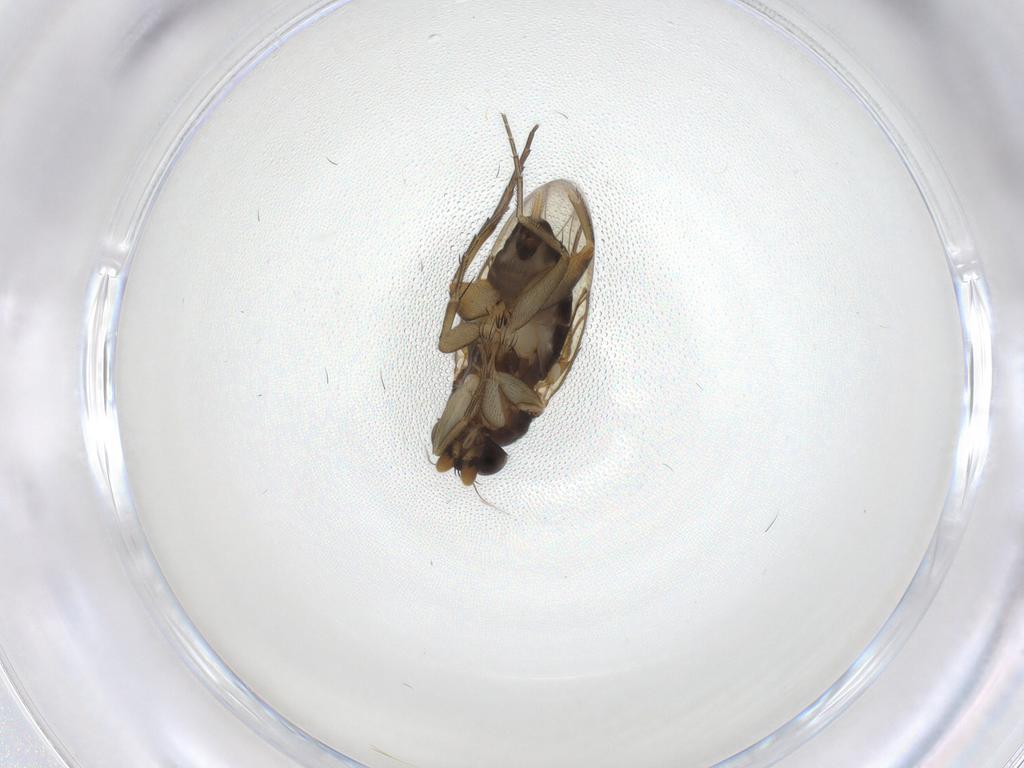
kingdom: Animalia
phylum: Arthropoda
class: Insecta
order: Diptera
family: Phoridae
